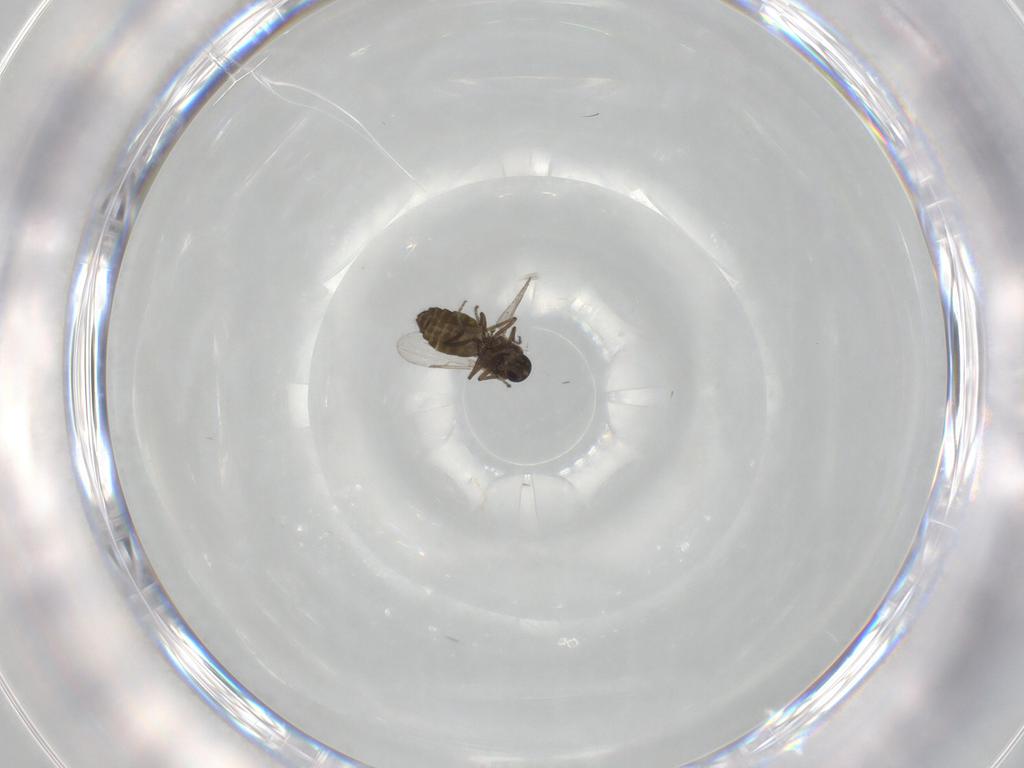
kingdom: Animalia
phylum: Arthropoda
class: Insecta
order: Diptera
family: Ceratopogonidae
